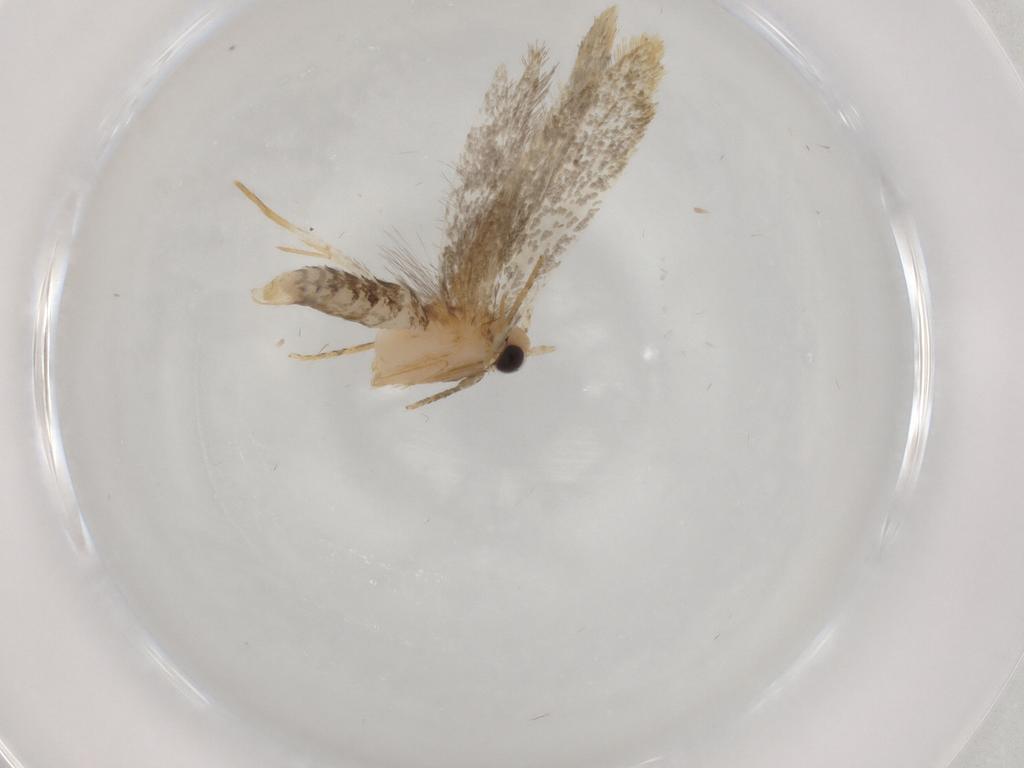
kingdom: Animalia
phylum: Arthropoda
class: Insecta
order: Lepidoptera
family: Tineidae
